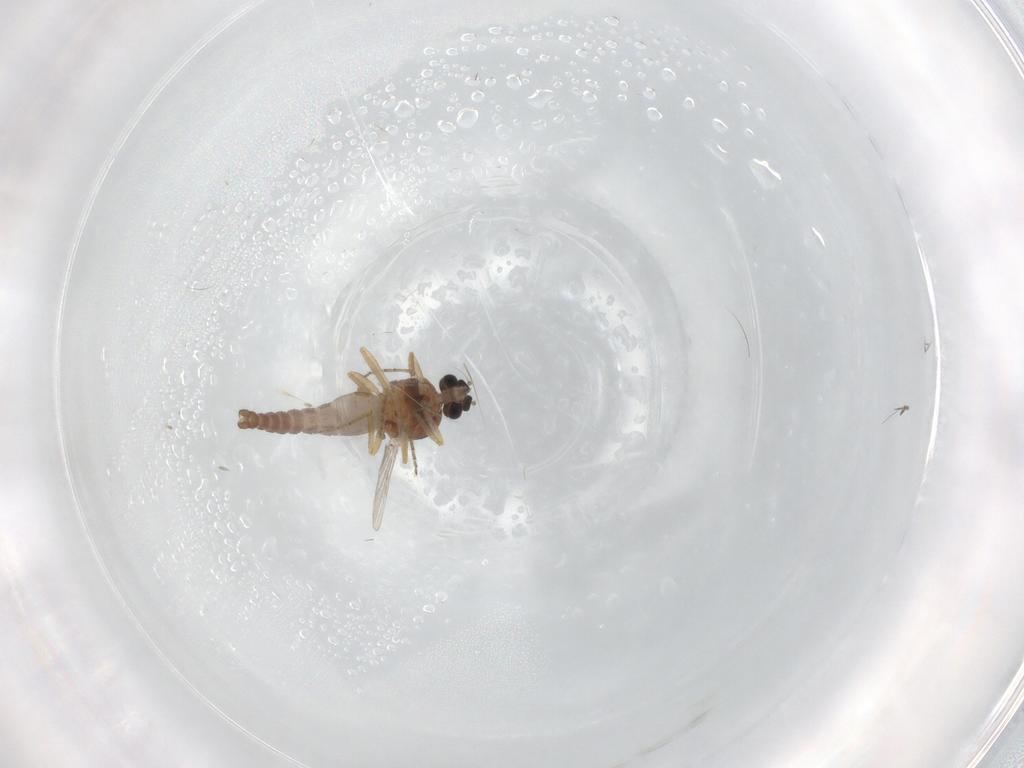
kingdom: Animalia
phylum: Arthropoda
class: Insecta
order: Diptera
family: Ceratopogonidae
